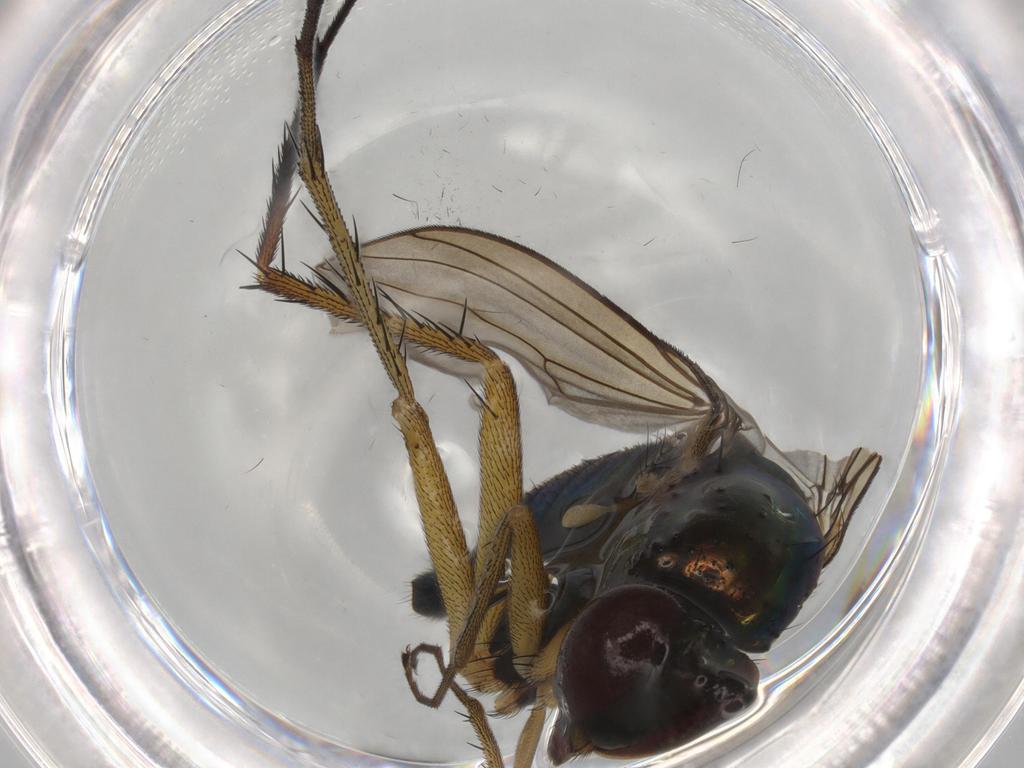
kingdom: Animalia
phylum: Arthropoda
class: Insecta
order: Diptera
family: Dolichopodidae
